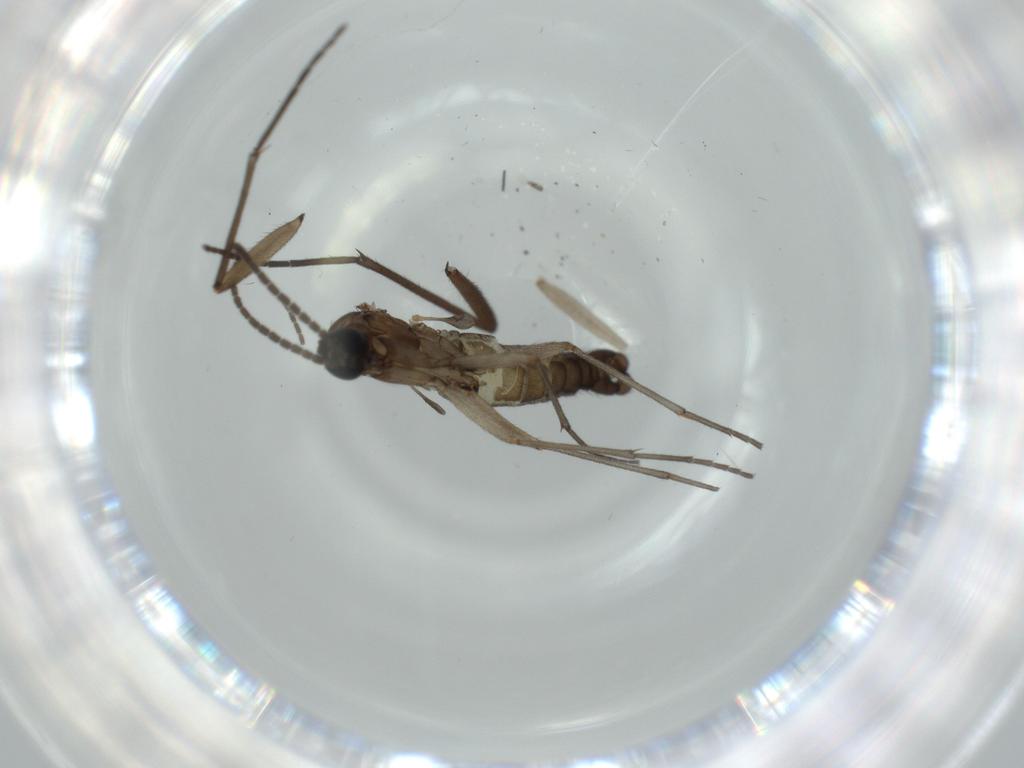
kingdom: Animalia
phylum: Arthropoda
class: Insecta
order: Diptera
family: Sciaridae
